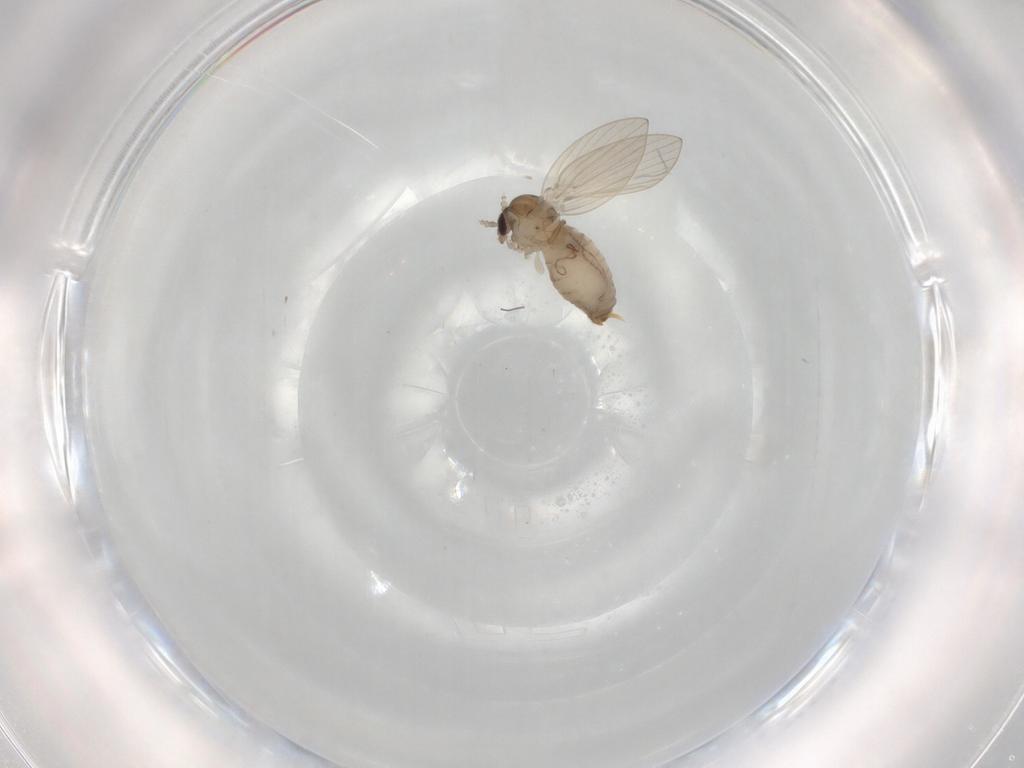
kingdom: Animalia
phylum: Arthropoda
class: Insecta
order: Diptera
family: Psychodidae
